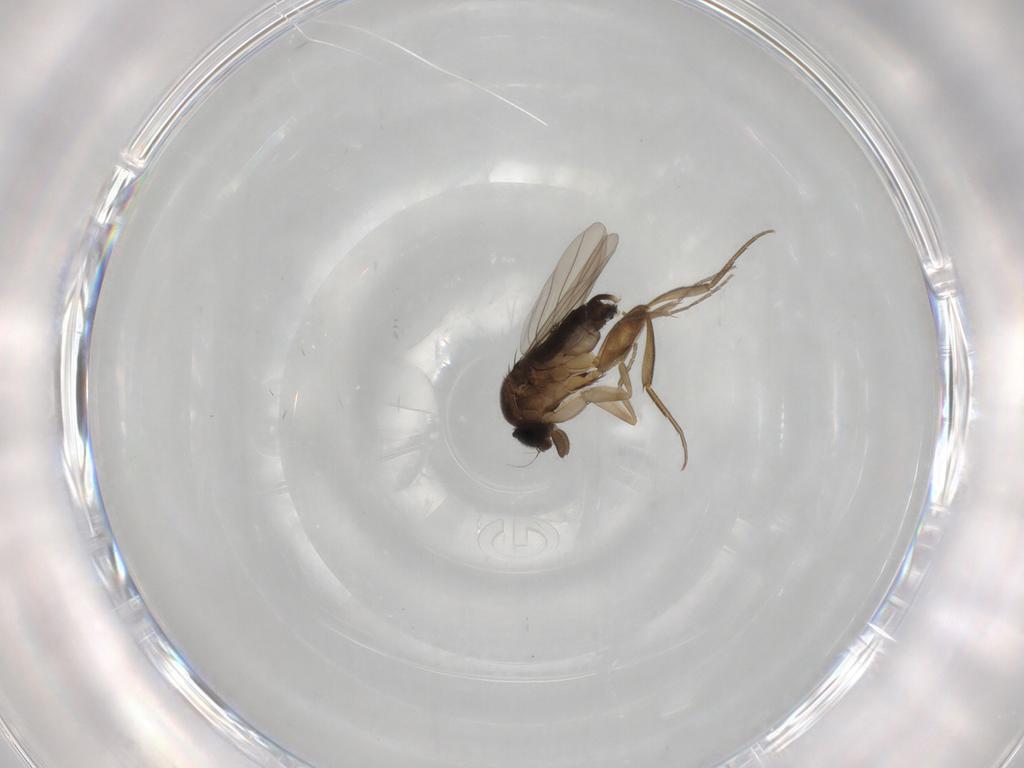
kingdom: Animalia
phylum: Arthropoda
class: Insecta
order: Diptera
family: Phoridae
